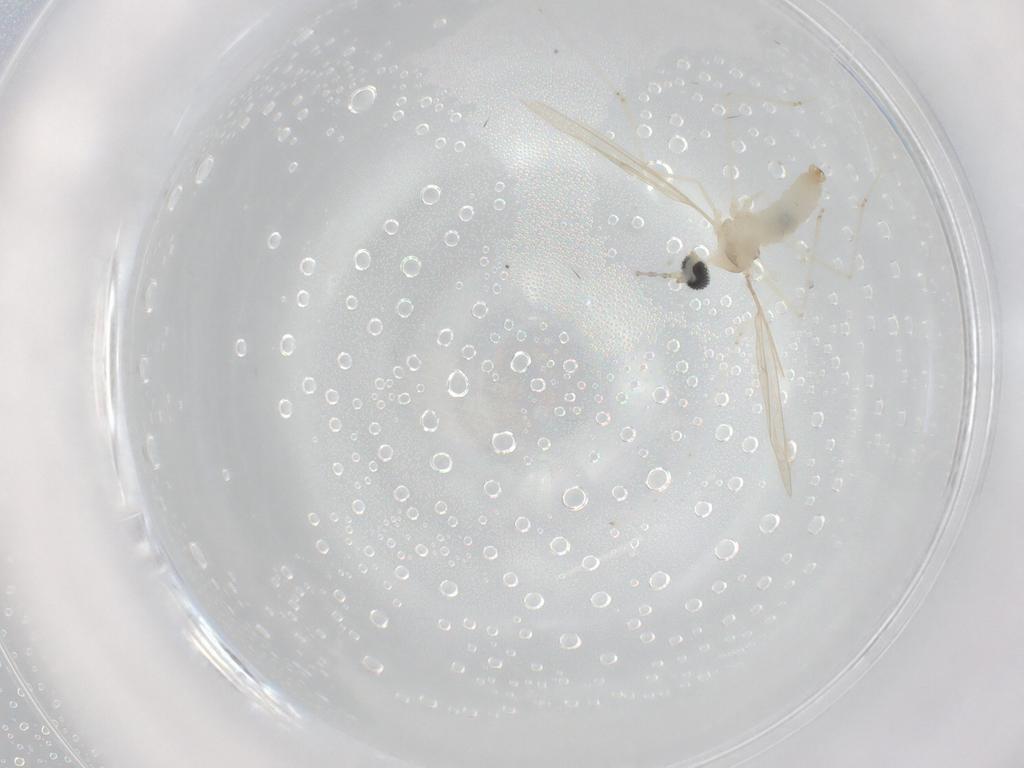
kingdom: Animalia
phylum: Arthropoda
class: Insecta
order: Diptera
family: Cecidomyiidae
